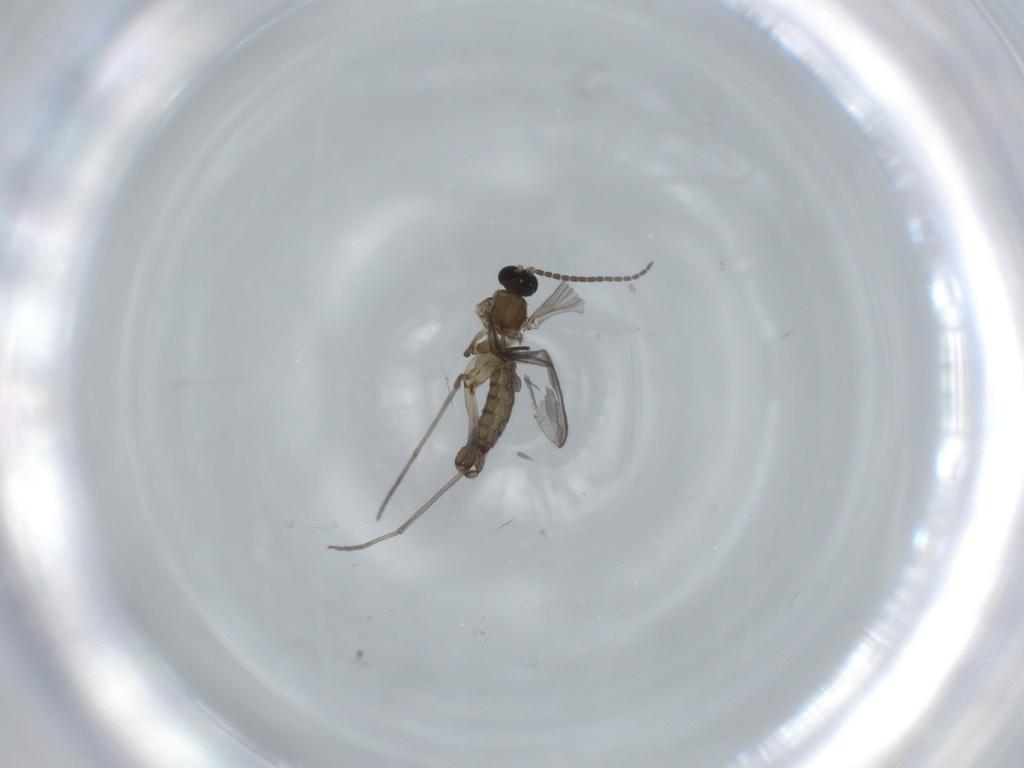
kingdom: Animalia
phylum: Arthropoda
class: Insecta
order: Diptera
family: Sciaridae
